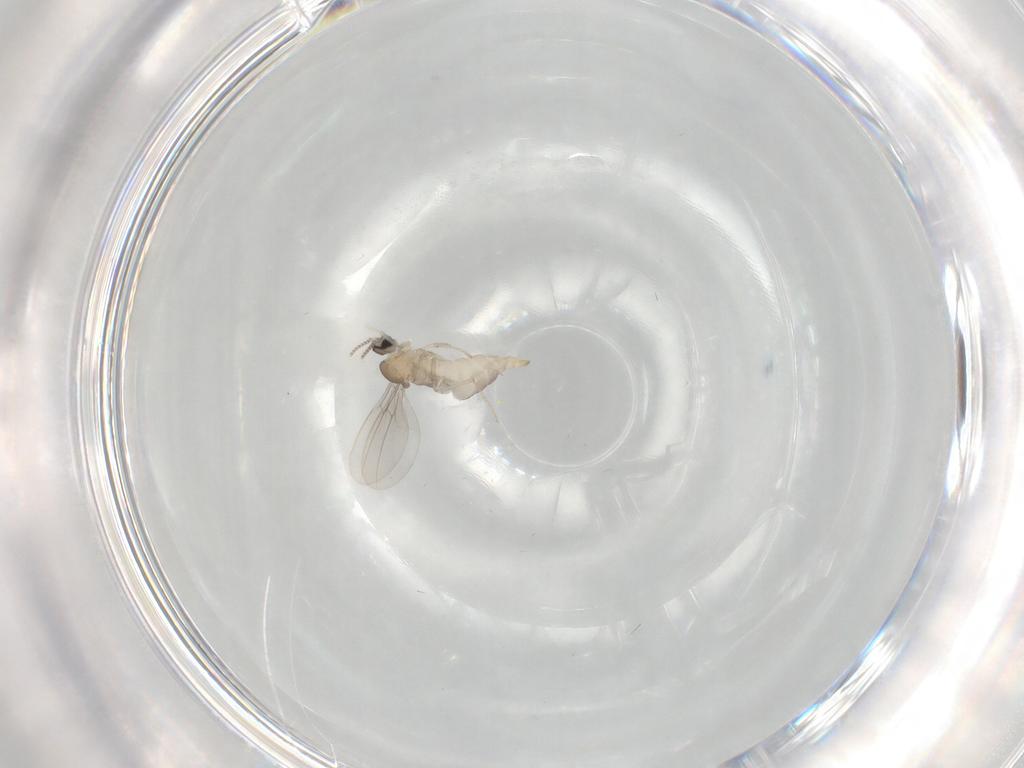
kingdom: Animalia
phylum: Arthropoda
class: Insecta
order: Diptera
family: Cecidomyiidae
